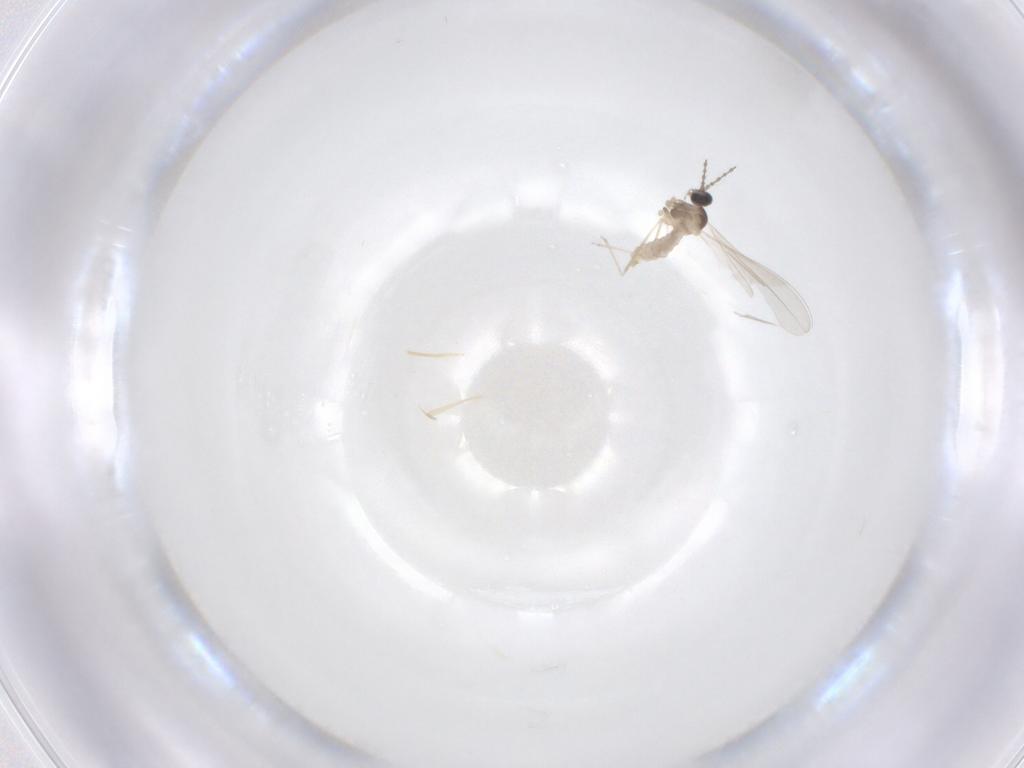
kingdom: Animalia
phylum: Arthropoda
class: Insecta
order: Diptera
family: Cecidomyiidae
